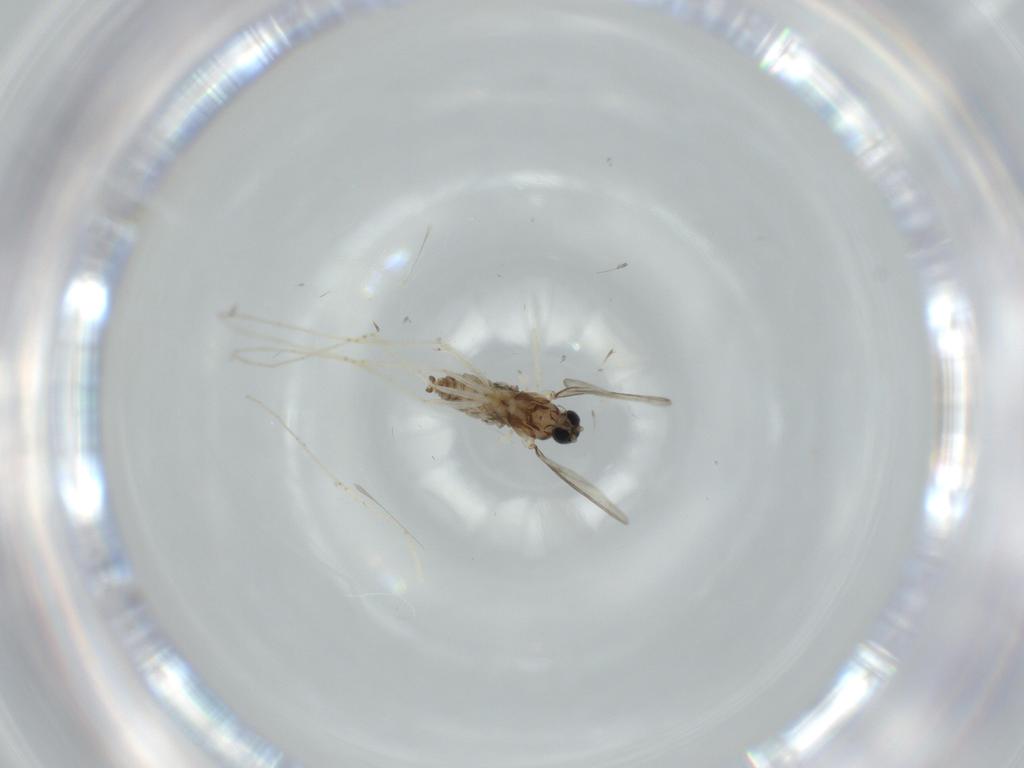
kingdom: Animalia
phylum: Arthropoda
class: Insecta
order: Diptera
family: Cecidomyiidae
